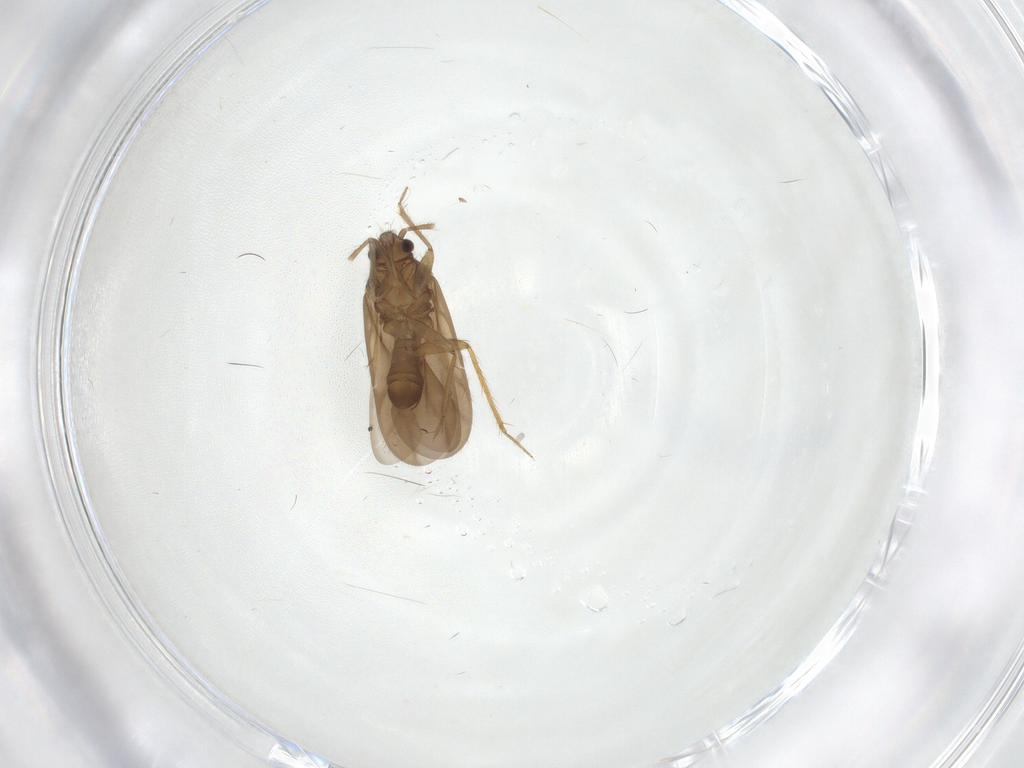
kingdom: Animalia
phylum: Arthropoda
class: Insecta
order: Hemiptera
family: Ceratocombidae
